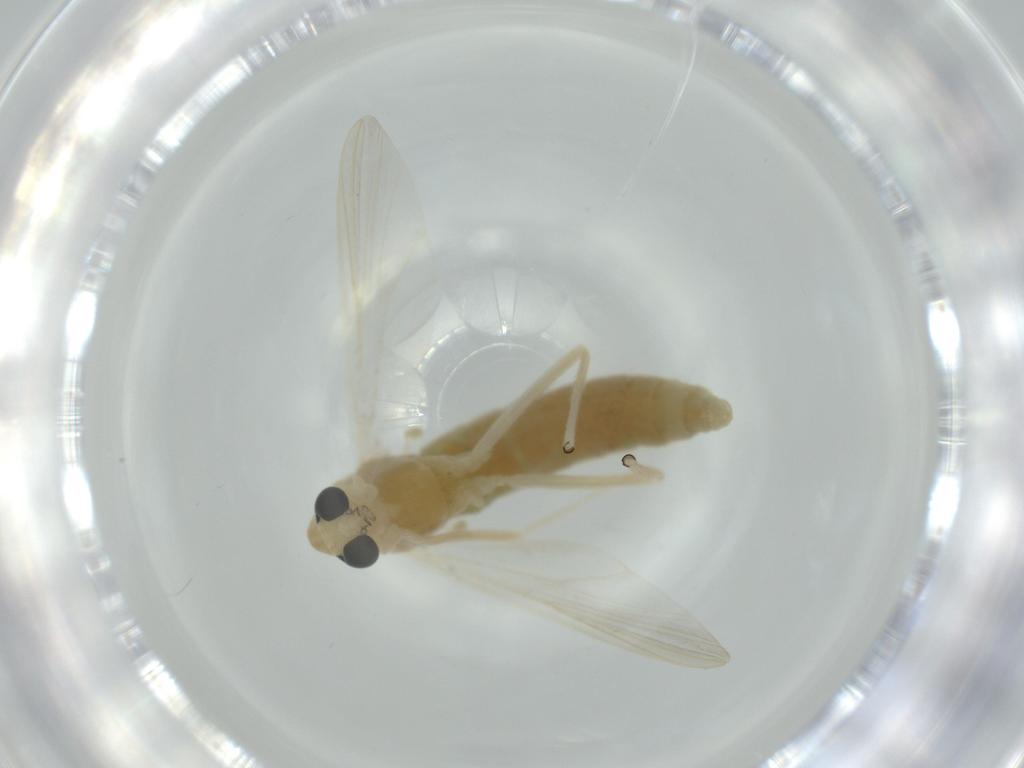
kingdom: Animalia
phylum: Arthropoda
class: Insecta
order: Diptera
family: Chironomidae
